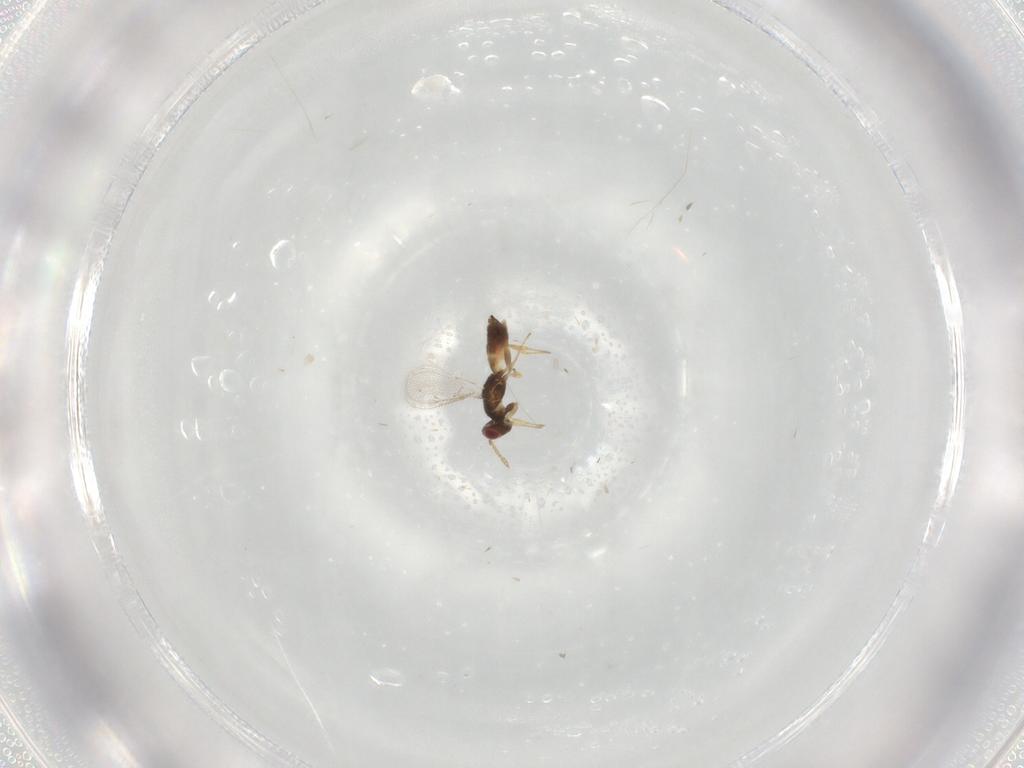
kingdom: Animalia
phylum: Arthropoda
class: Insecta
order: Hymenoptera
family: Eulophidae
